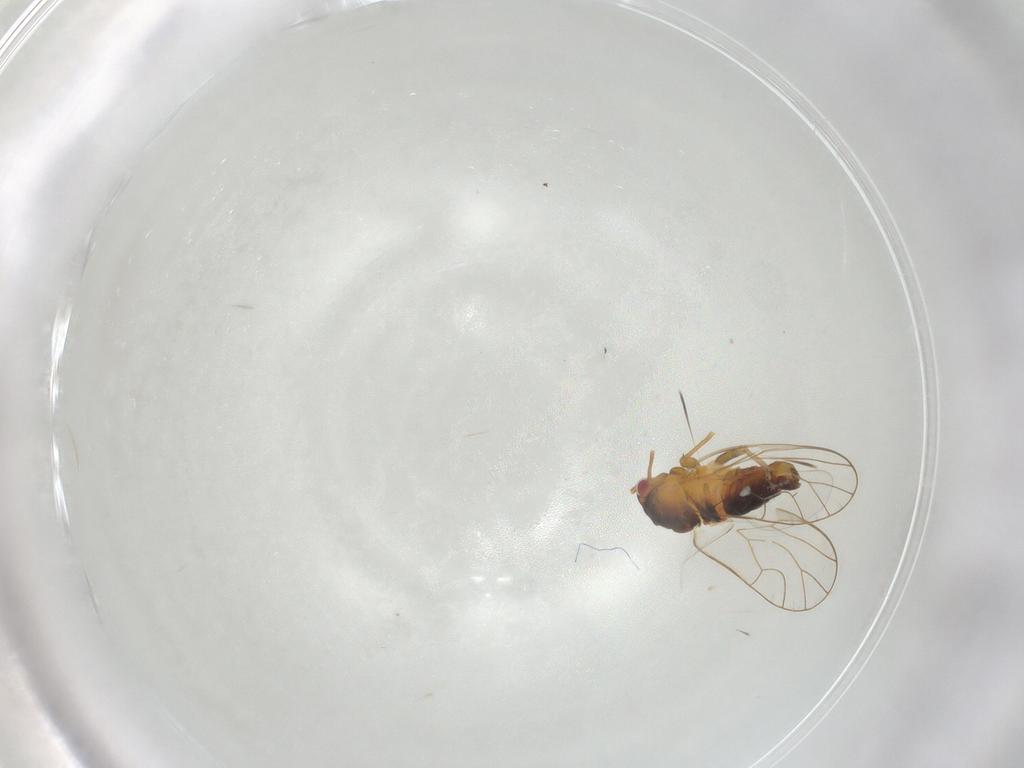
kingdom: Animalia
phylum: Arthropoda
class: Insecta
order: Hemiptera
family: Psyllidae
